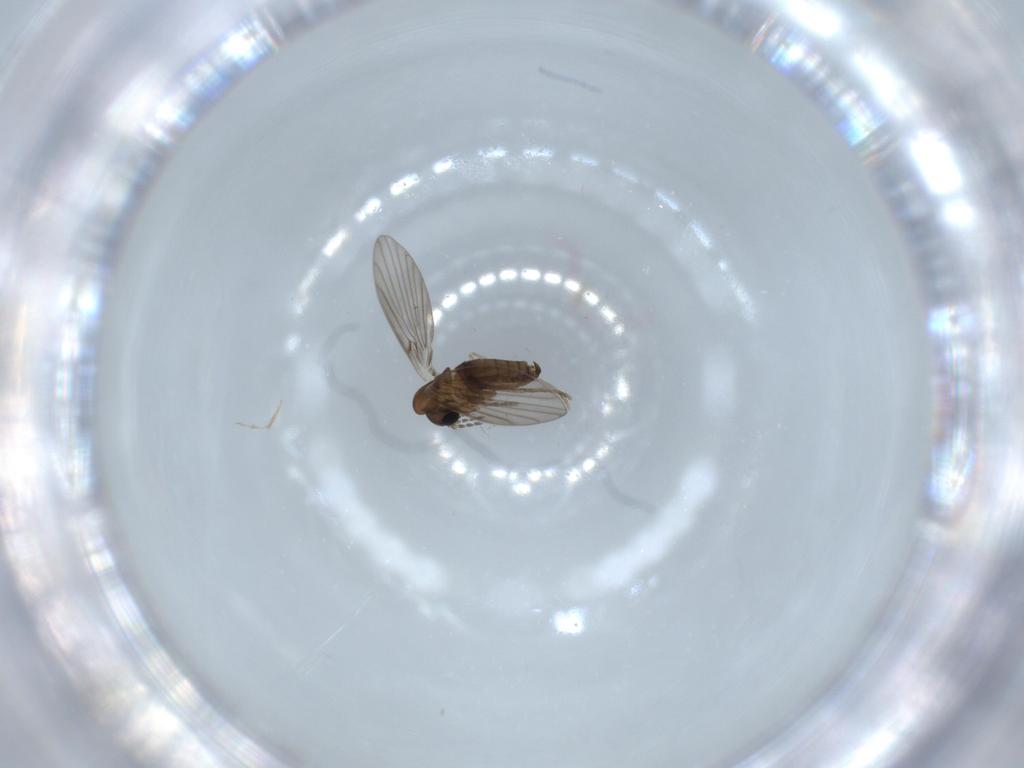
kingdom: Animalia
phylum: Arthropoda
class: Insecta
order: Diptera
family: Psychodidae
